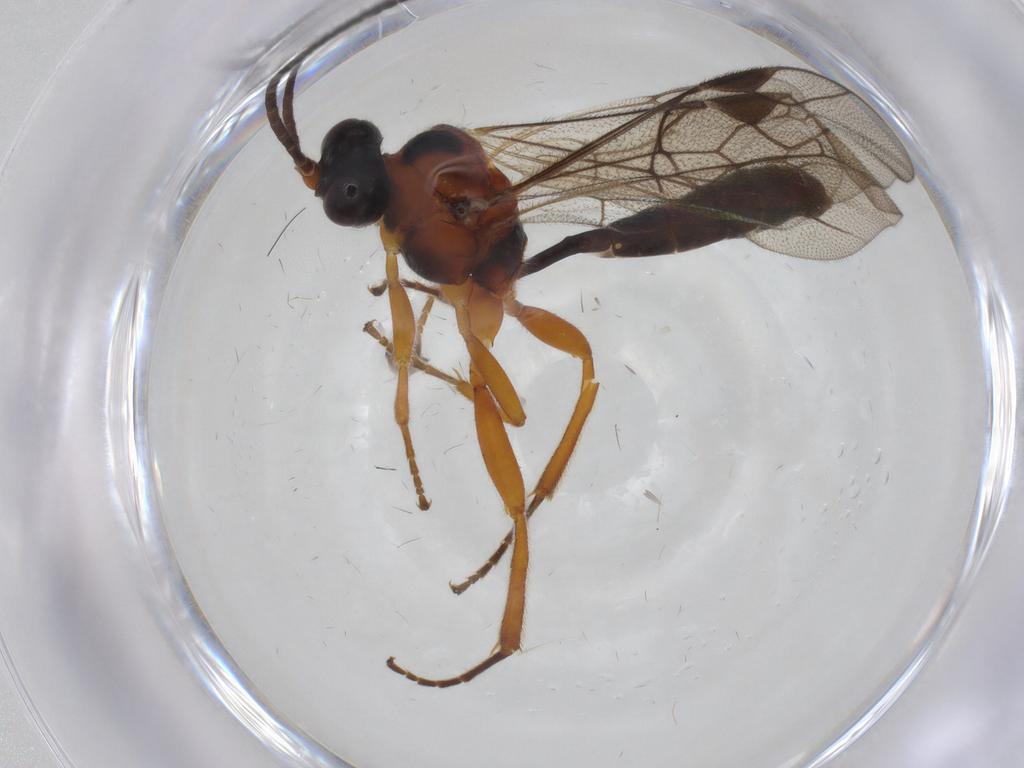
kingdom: Animalia
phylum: Arthropoda
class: Insecta
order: Hymenoptera
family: Ichneumonidae
